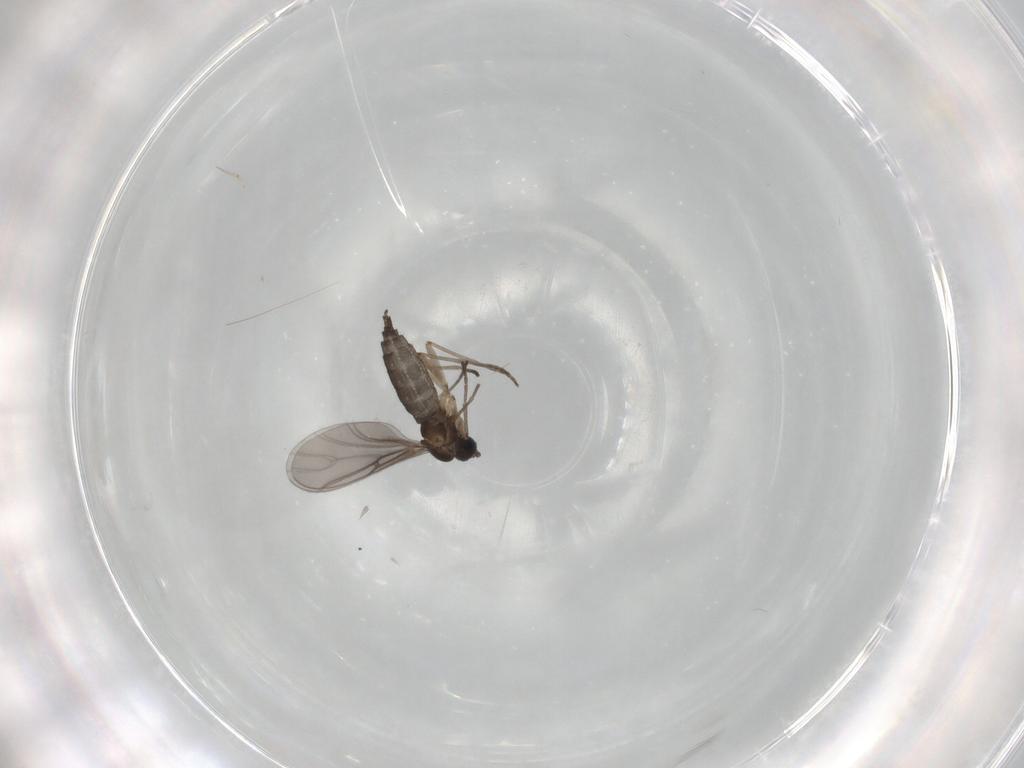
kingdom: Animalia
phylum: Arthropoda
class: Insecta
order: Diptera
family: Sciaridae
